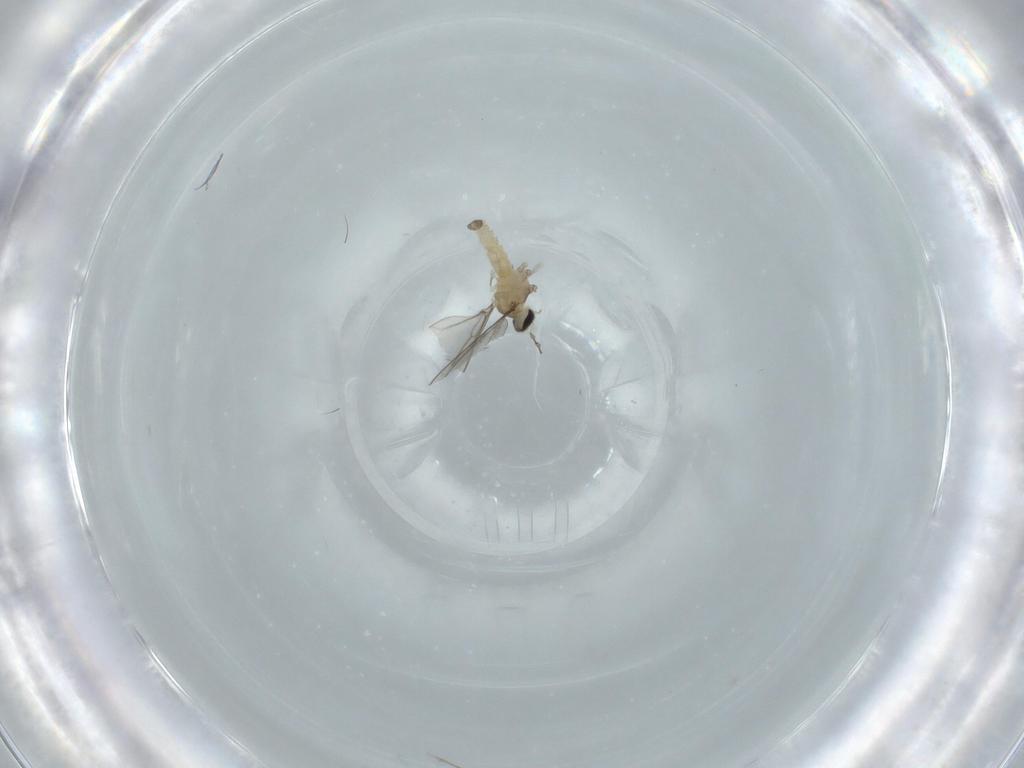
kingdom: Animalia
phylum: Arthropoda
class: Insecta
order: Diptera
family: Cecidomyiidae
